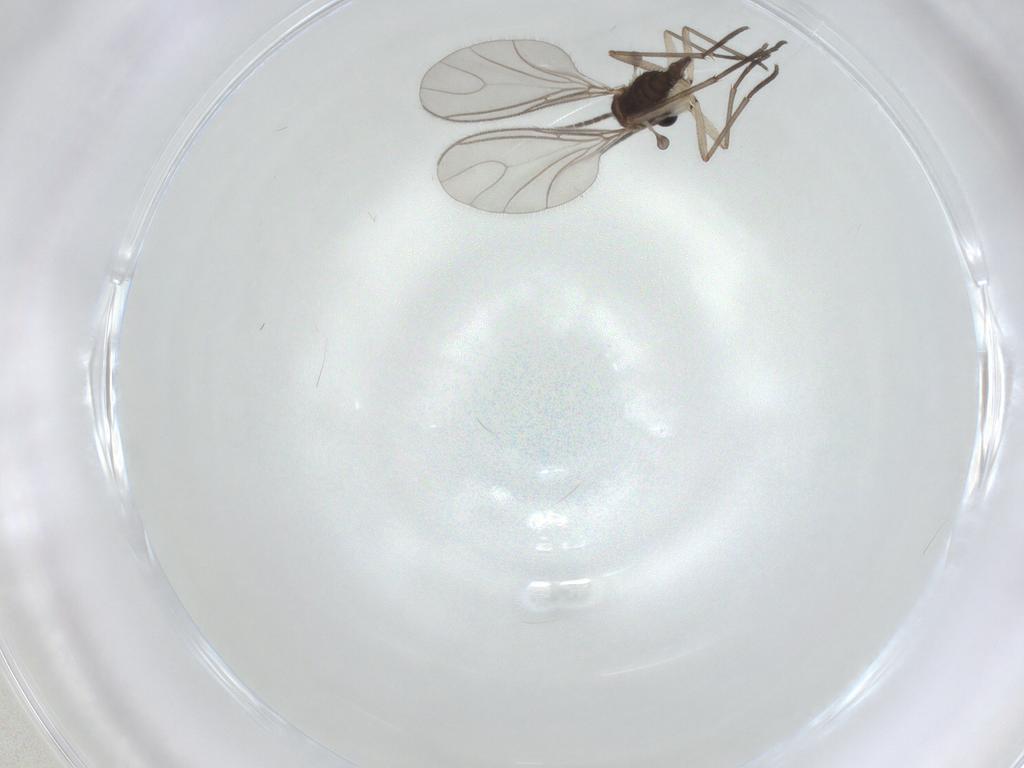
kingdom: Animalia
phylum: Arthropoda
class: Insecta
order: Diptera
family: Sciaridae
